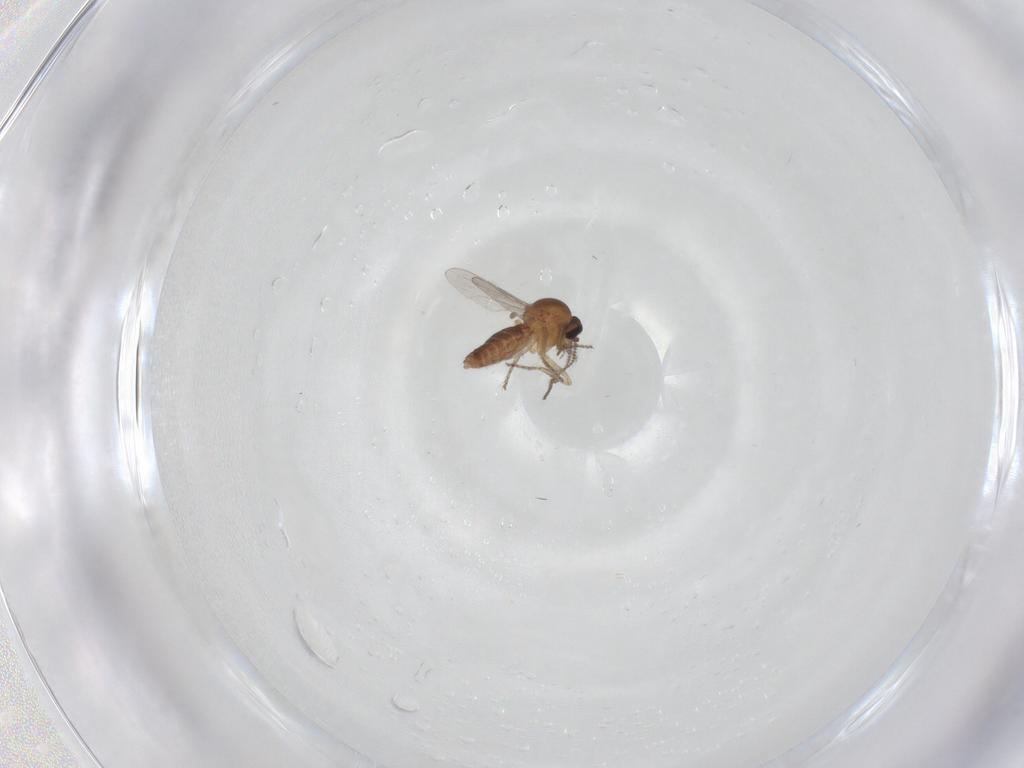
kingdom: Animalia
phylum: Arthropoda
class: Insecta
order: Diptera
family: Ceratopogonidae
